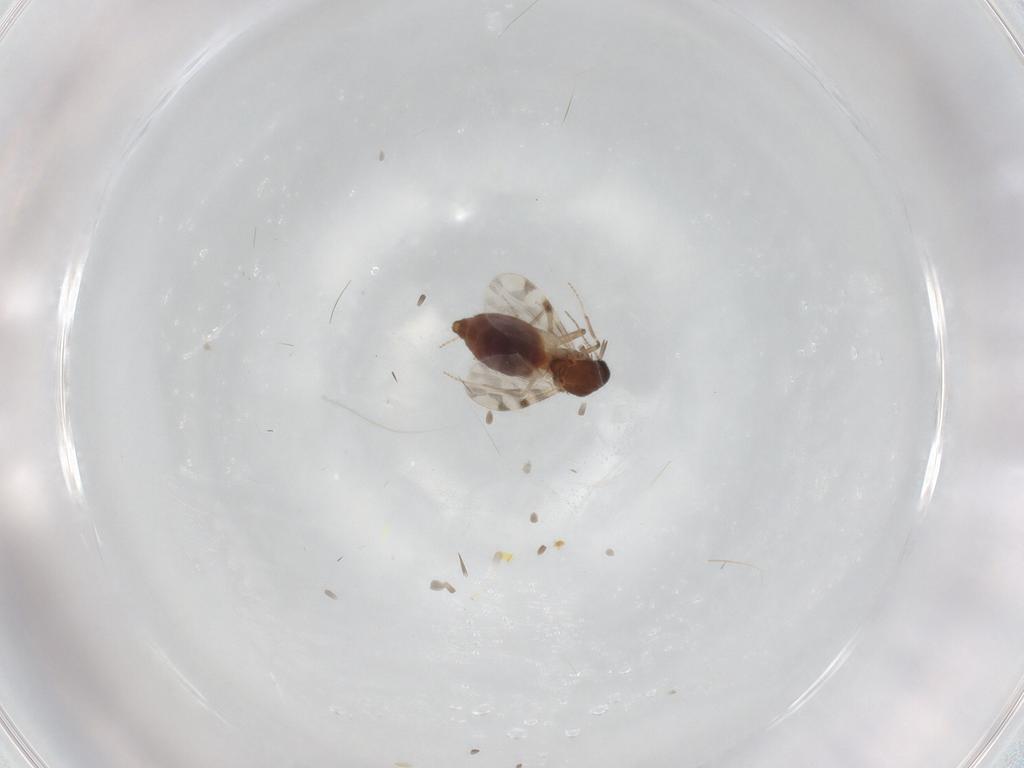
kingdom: Animalia
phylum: Arthropoda
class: Insecta
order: Diptera
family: Ceratopogonidae
